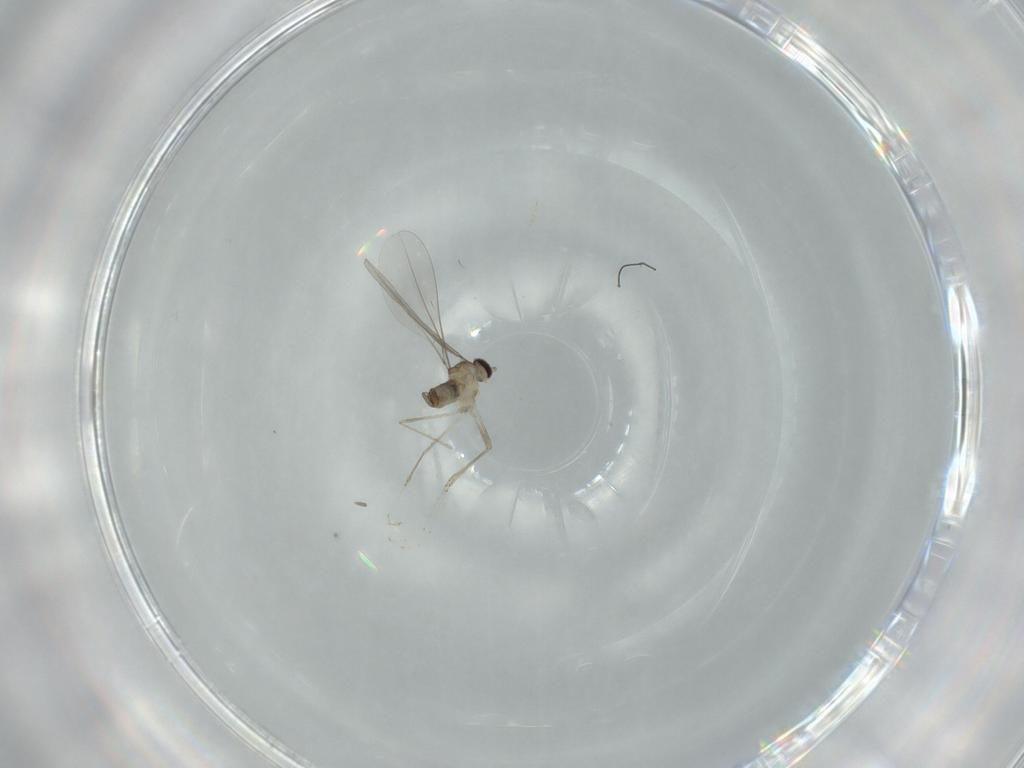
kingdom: Animalia
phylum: Arthropoda
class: Insecta
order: Diptera
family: Cecidomyiidae
